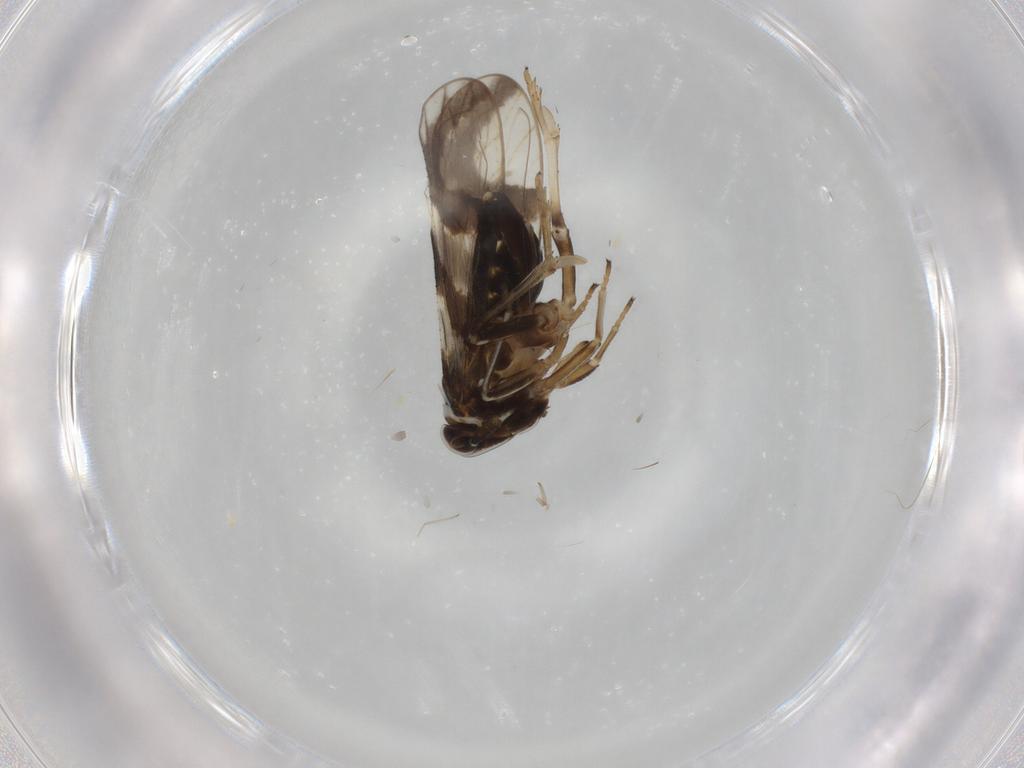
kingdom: Animalia
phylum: Arthropoda
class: Insecta
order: Hemiptera
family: Delphacidae
